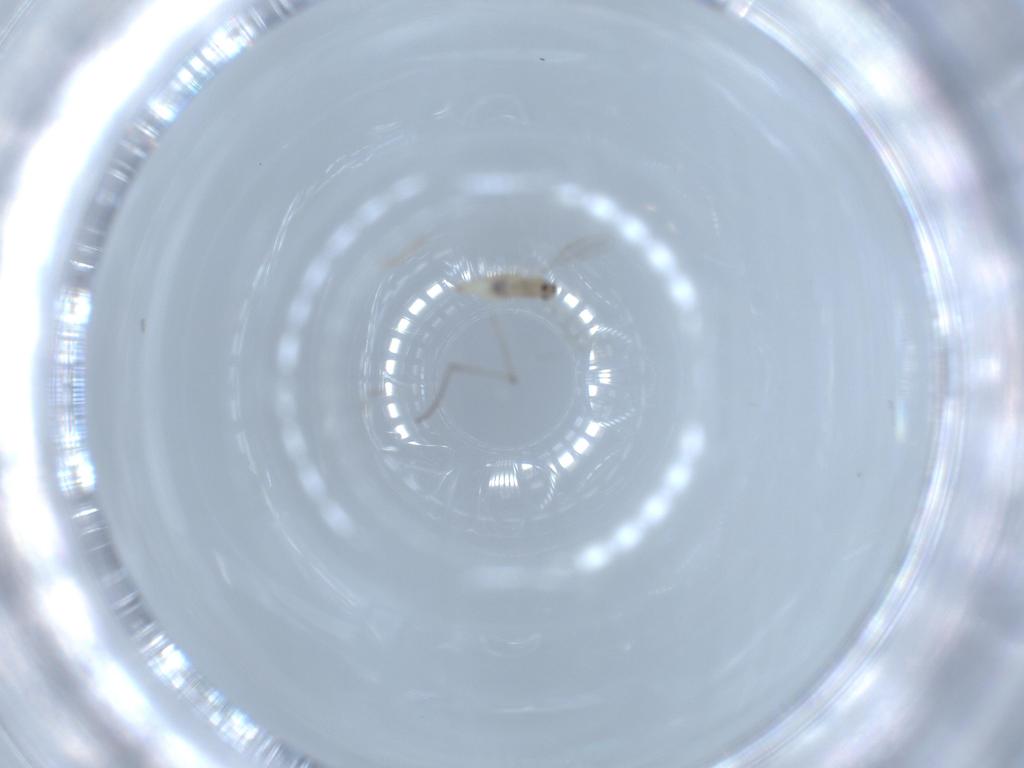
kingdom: Animalia
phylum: Arthropoda
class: Insecta
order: Diptera
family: Cecidomyiidae
